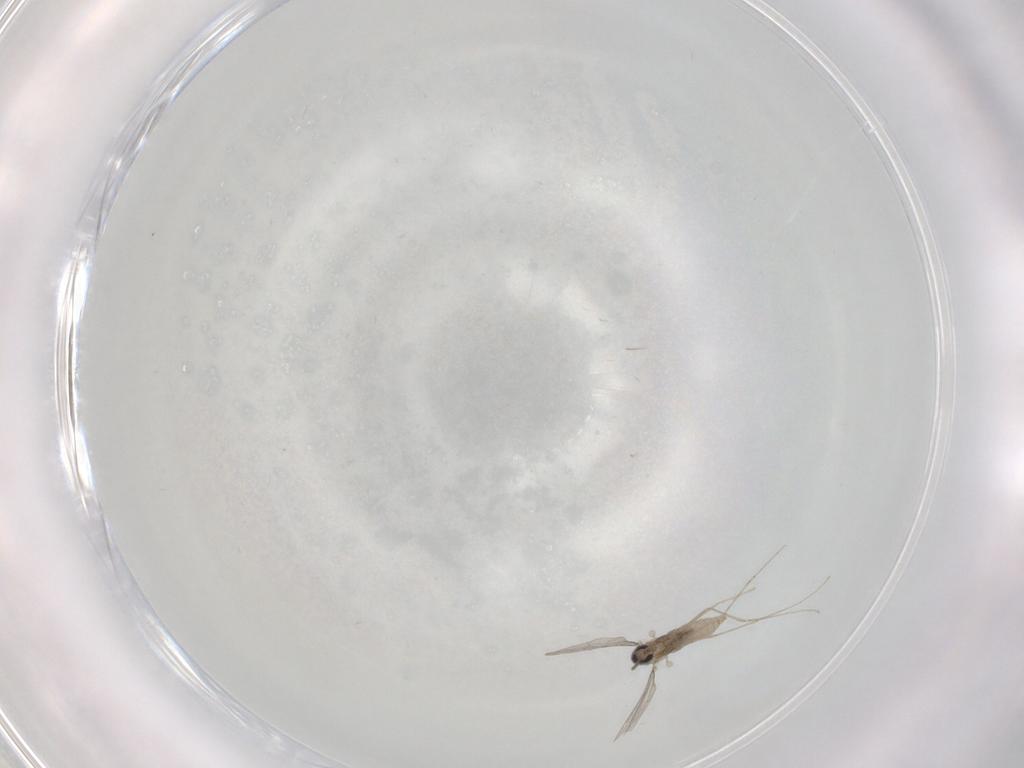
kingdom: Animalia
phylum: Arthropoda
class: Insecta
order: Diptera
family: Cecidomyiidae
